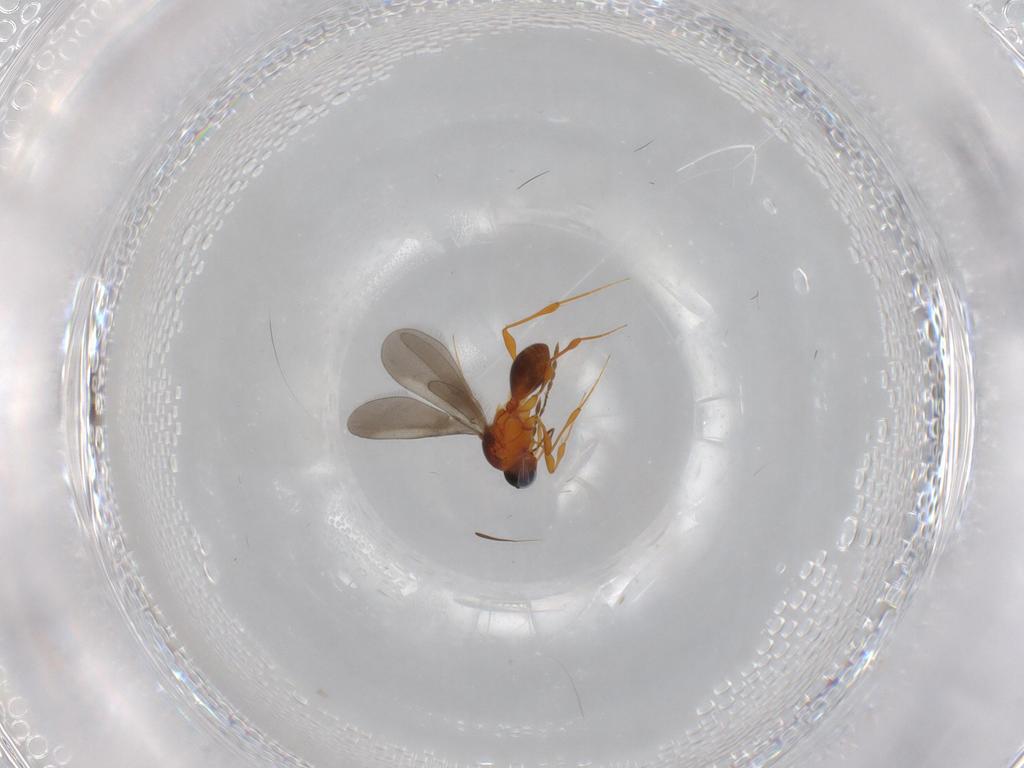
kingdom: Animalia
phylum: Arthropoda
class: Insecta
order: Hymenoptera
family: Platygastridae
